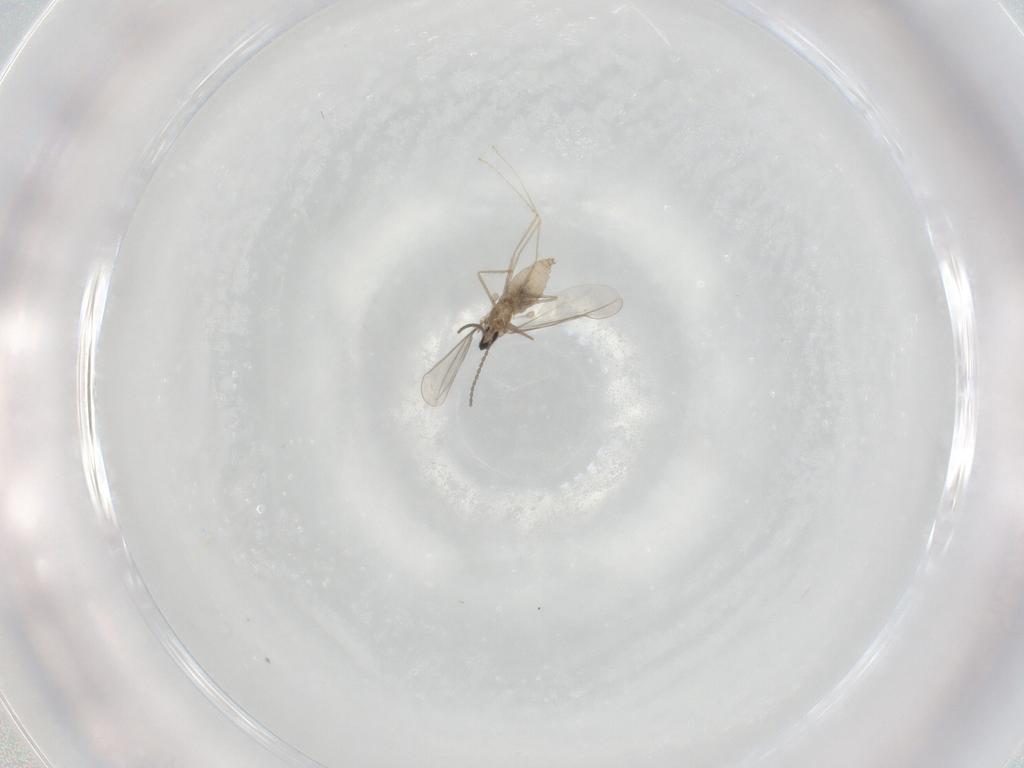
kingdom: Animalia
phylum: Arthropoda
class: Insecta
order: Diptera
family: Cecidomyiidae
